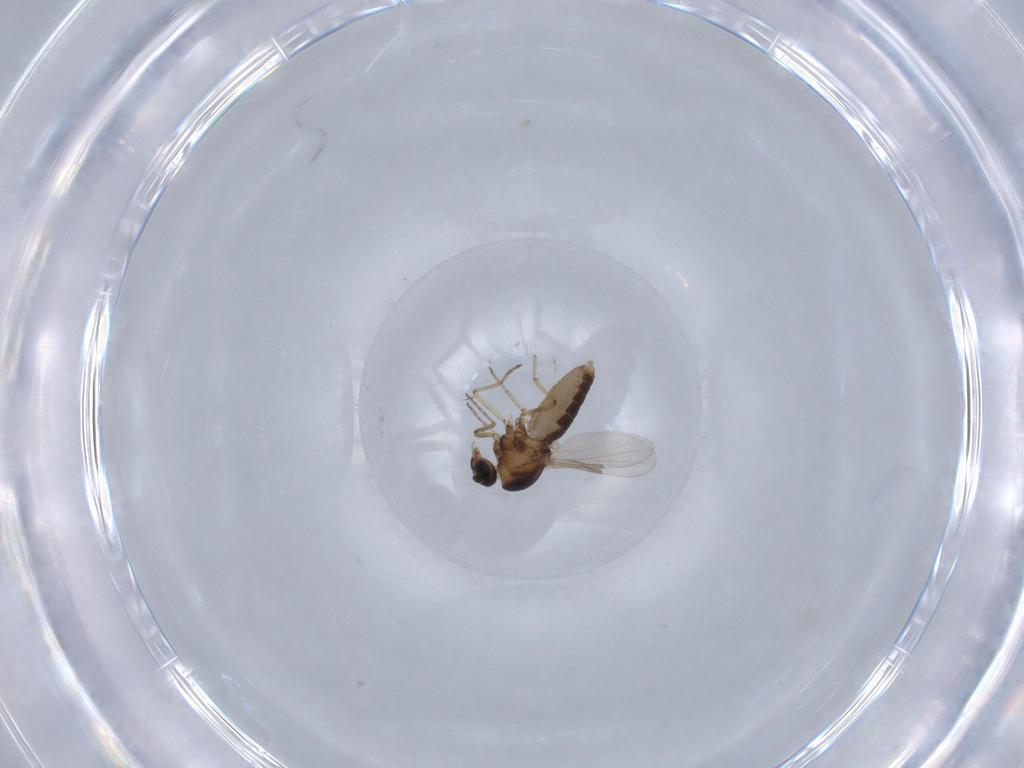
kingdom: Animalia
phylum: Arthropoda
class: Insecta
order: Diptera
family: Ceratopogonidae
